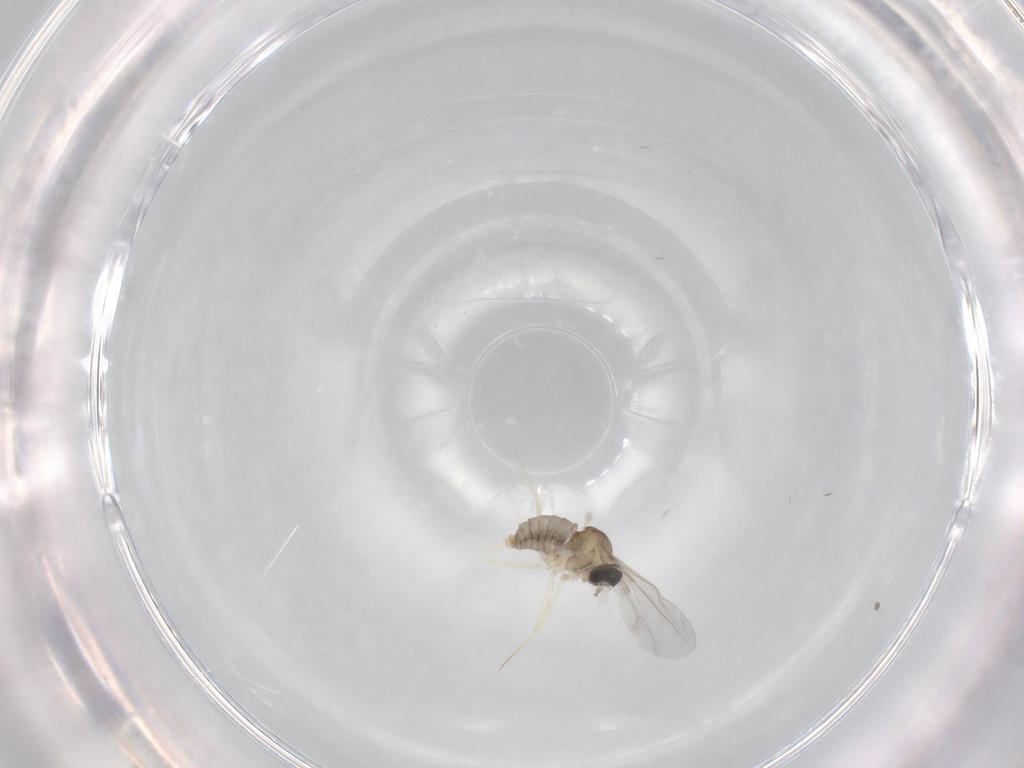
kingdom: Animalia
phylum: Arthropoda
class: Insecta
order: Diptera
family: Cecidomyiidae
